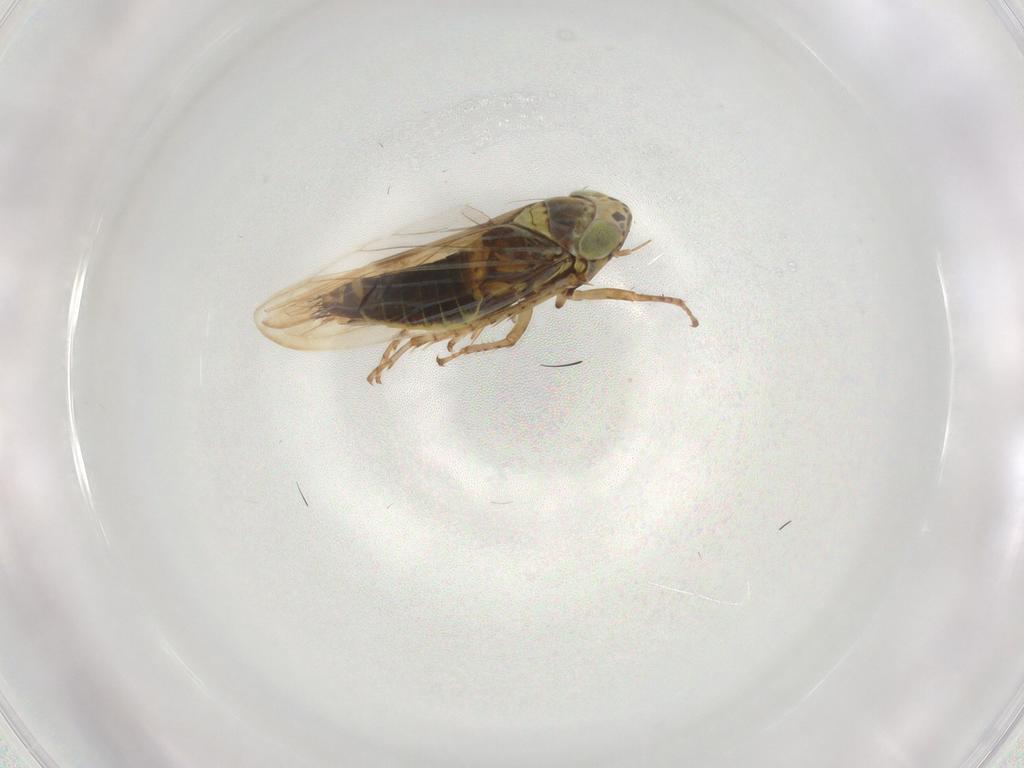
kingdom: Animalia
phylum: Arthropoda
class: Insecta
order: Hemiptera
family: Cicadellidae
